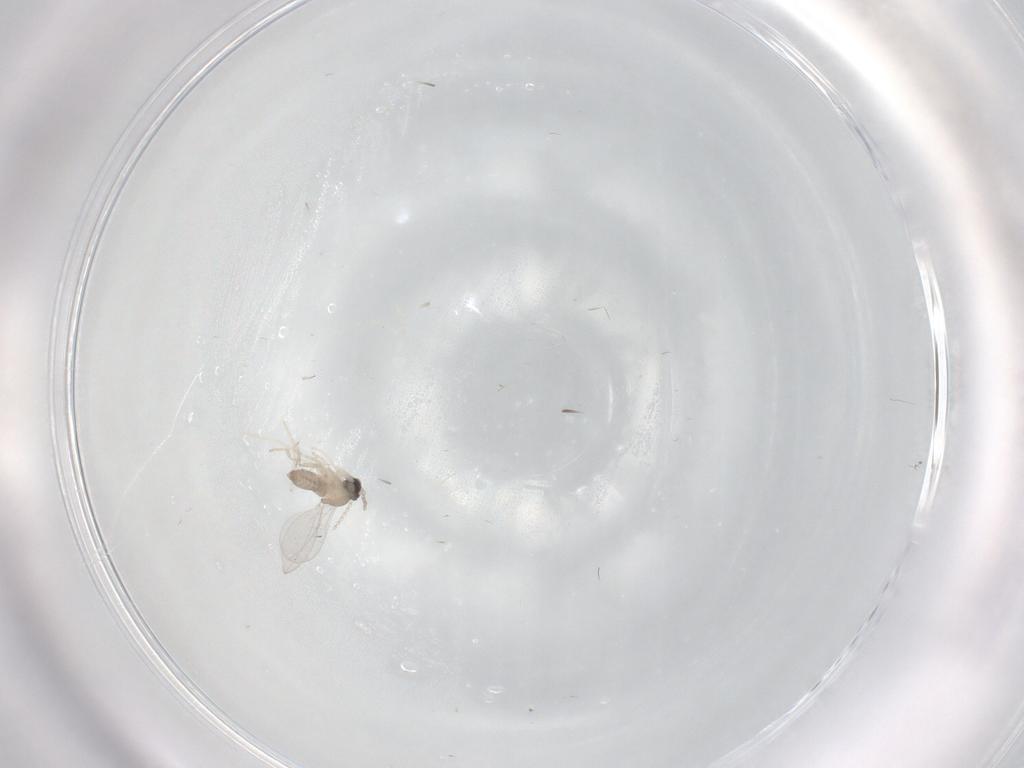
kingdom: Animalia
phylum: Arthropoda
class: Insecta
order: Diptera
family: Cecidomyiidae
